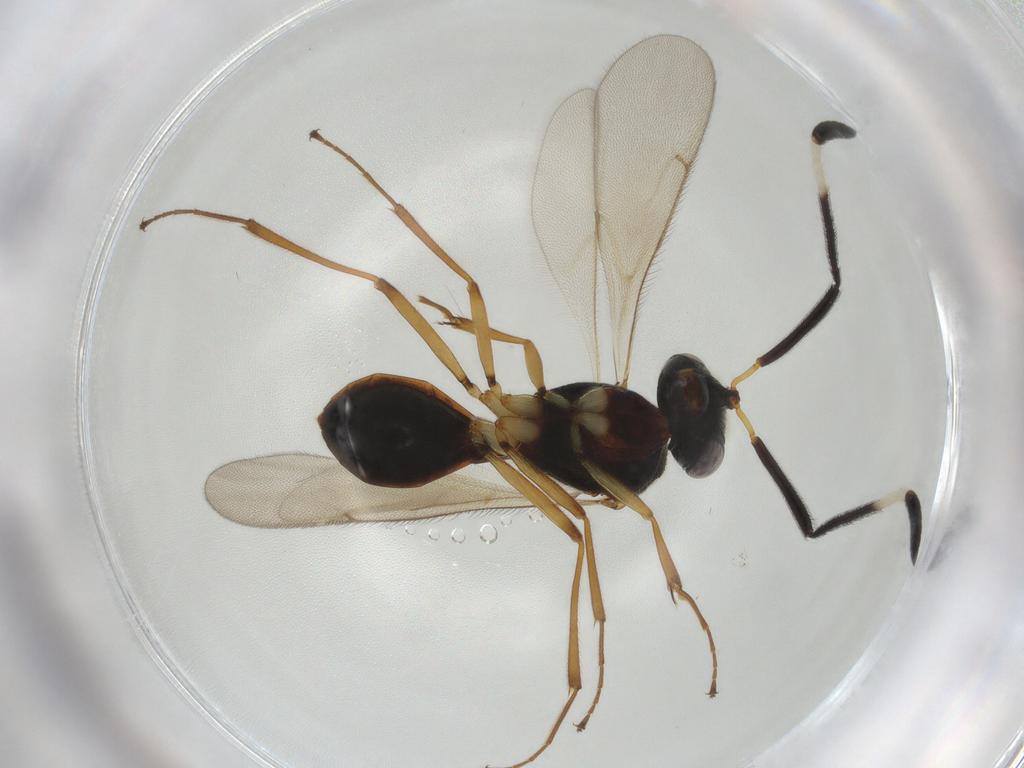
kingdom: Animalia
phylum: Arthropoda
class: Insecta
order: Hymenoptera
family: Scelionidae
